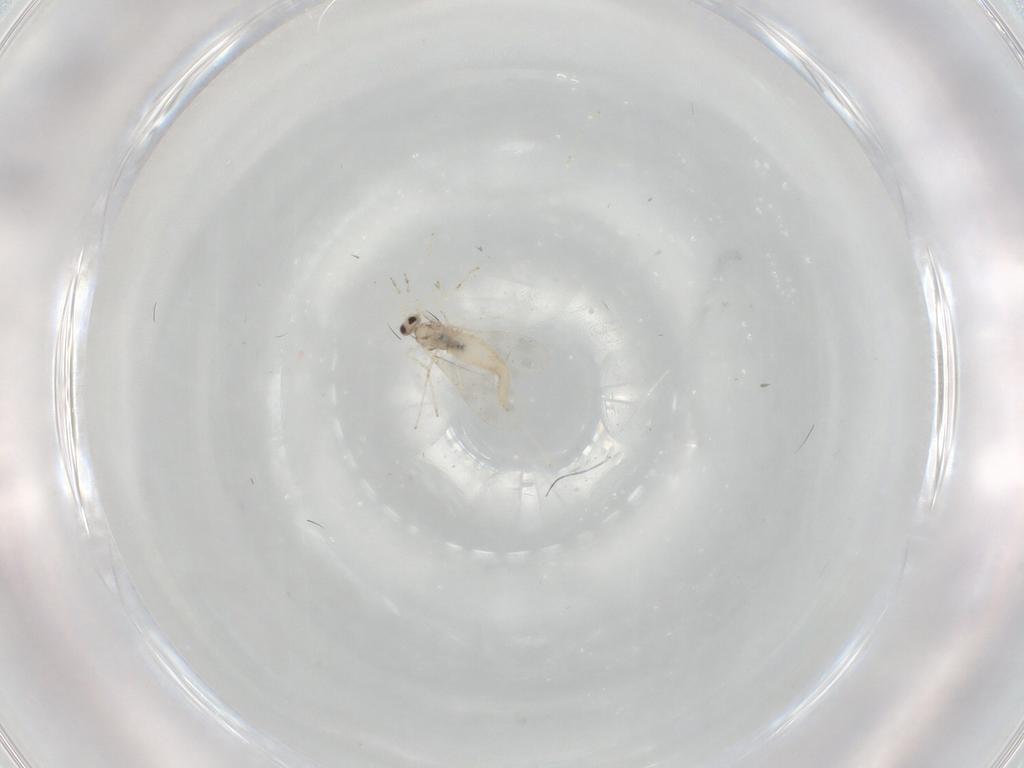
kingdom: Animalia
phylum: Arthropoda
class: Insecta
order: Diptera
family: Cecidomyiidae
